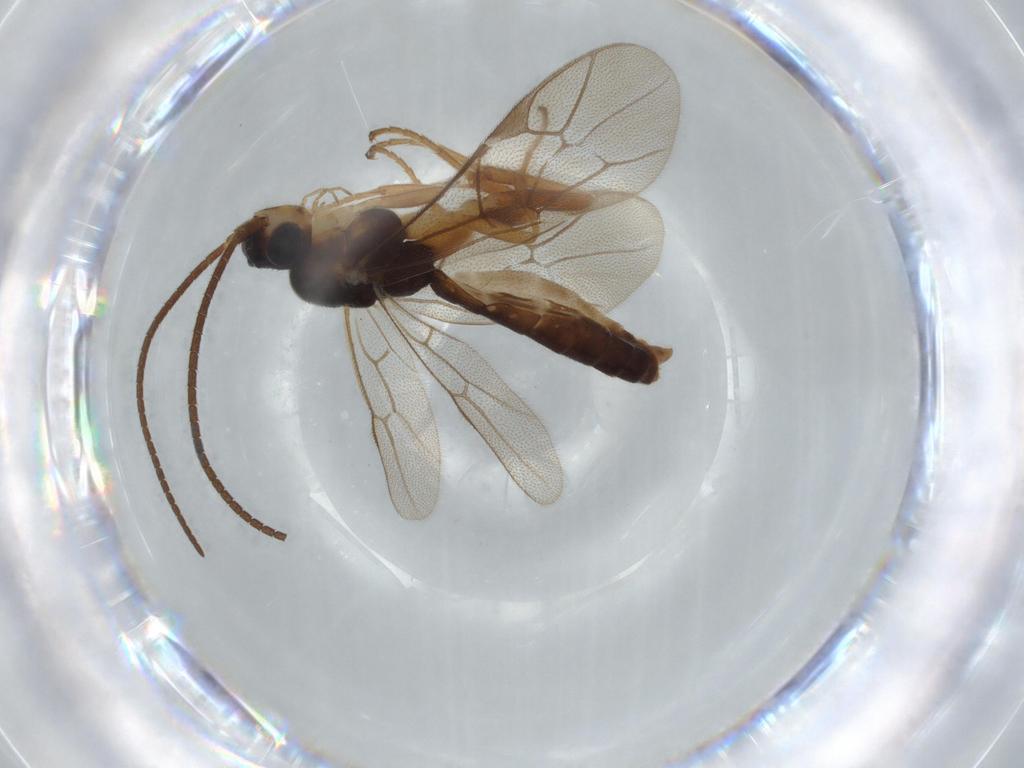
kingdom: Animalia
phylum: Arthropoda
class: Insecta
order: Hymenoptera
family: Ichneumonidae
